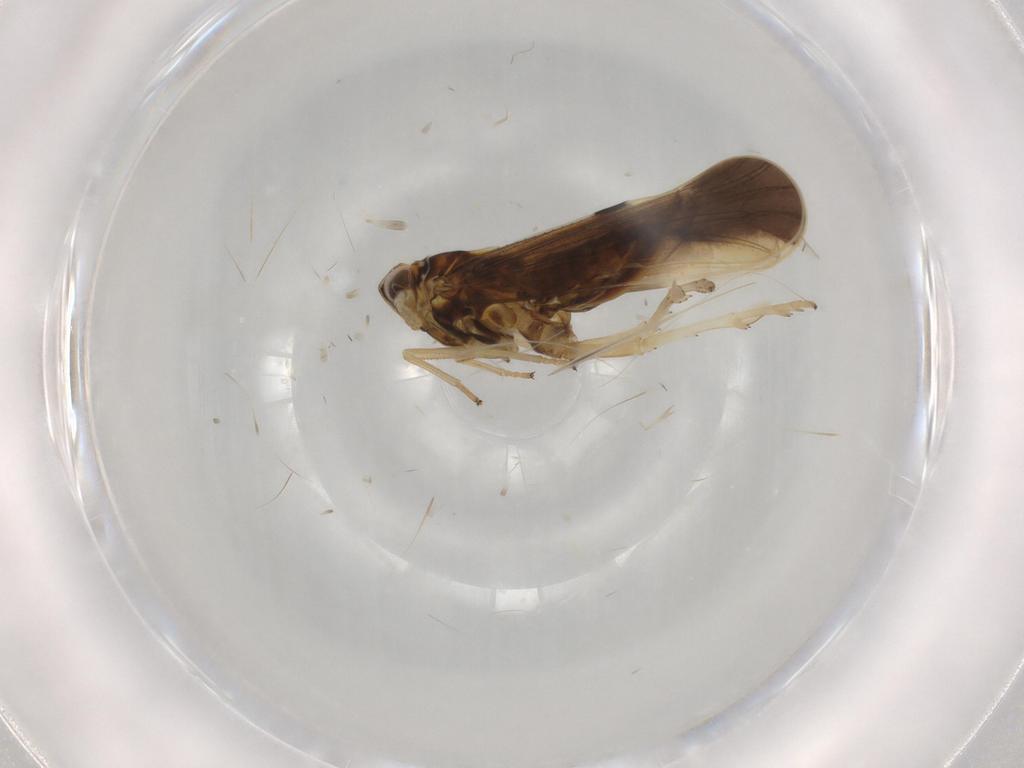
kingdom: Animalia
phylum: Arthropoda
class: Insecta
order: Hemiptera
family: Delphacidae
